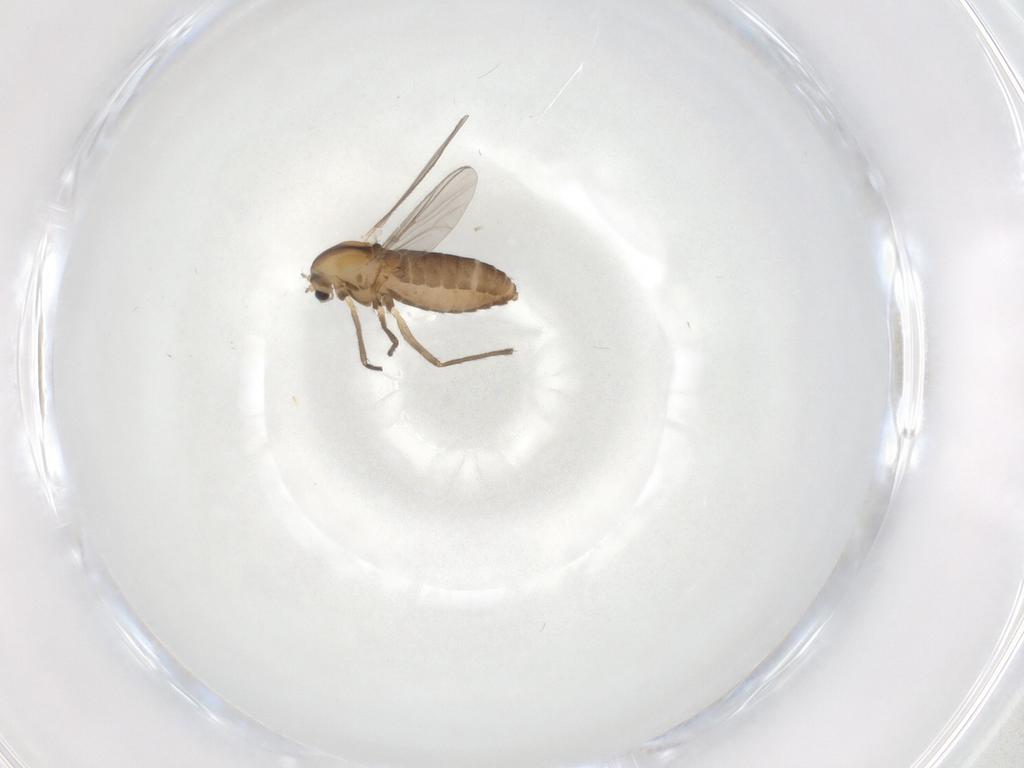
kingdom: Animalia
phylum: Arthropoda
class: Insecta
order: Diptera
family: Chironomidae
